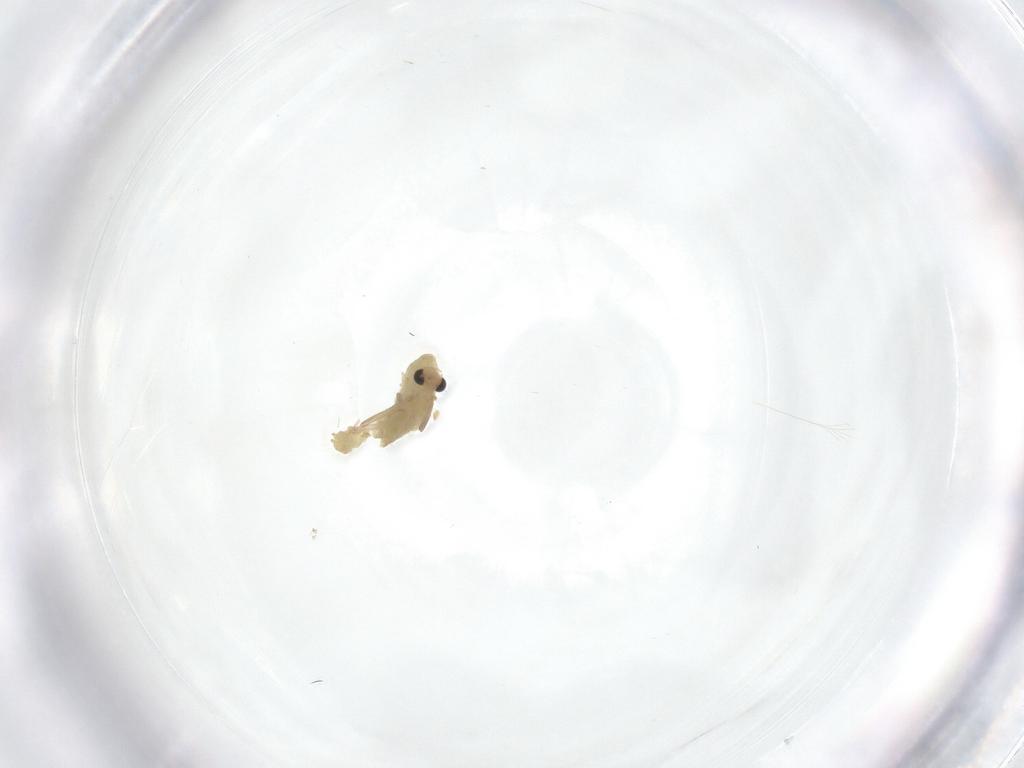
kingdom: Animalia
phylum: Arthropoda
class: Insecta
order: Diptera
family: Chironomidae
